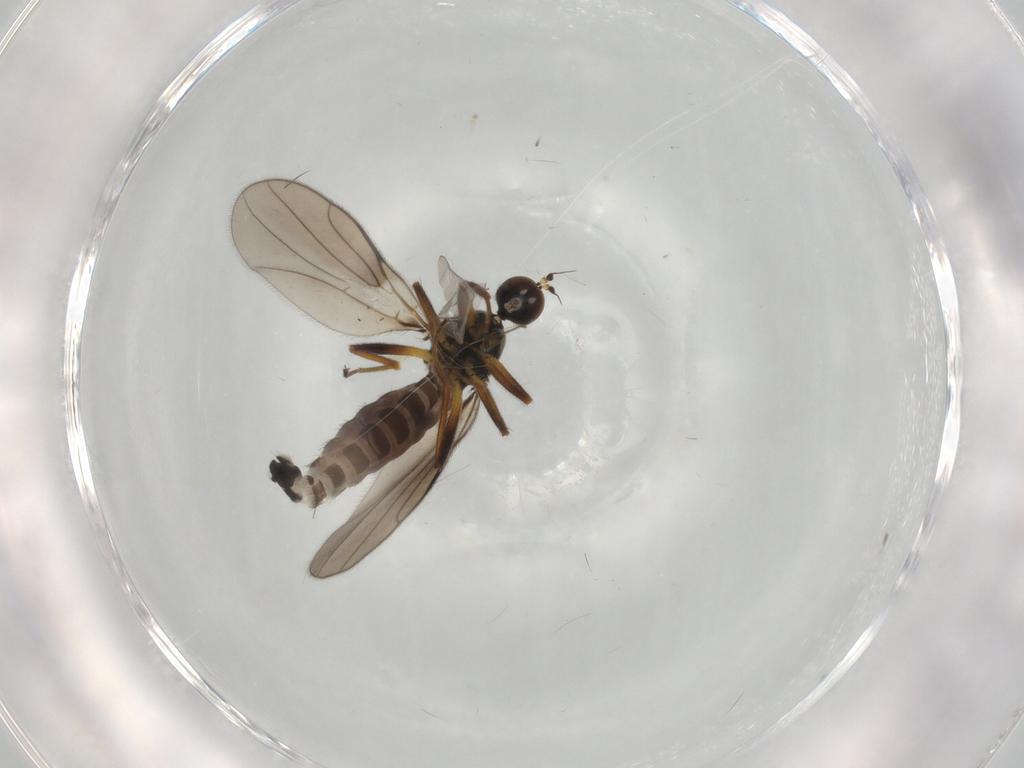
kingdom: Animalia
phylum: Arthropoda
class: Insecta
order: Diptera
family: Hybotidae
